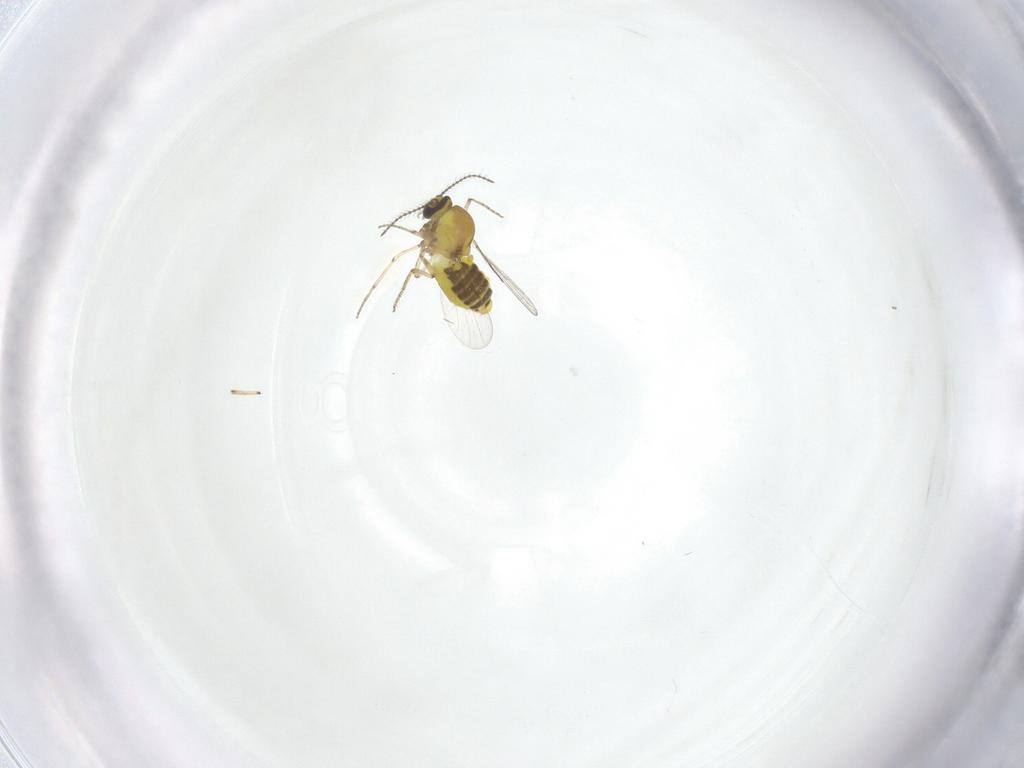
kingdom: Animalia
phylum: Arthropoda
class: Insecta
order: Diptera
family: Ceratopogonidae
